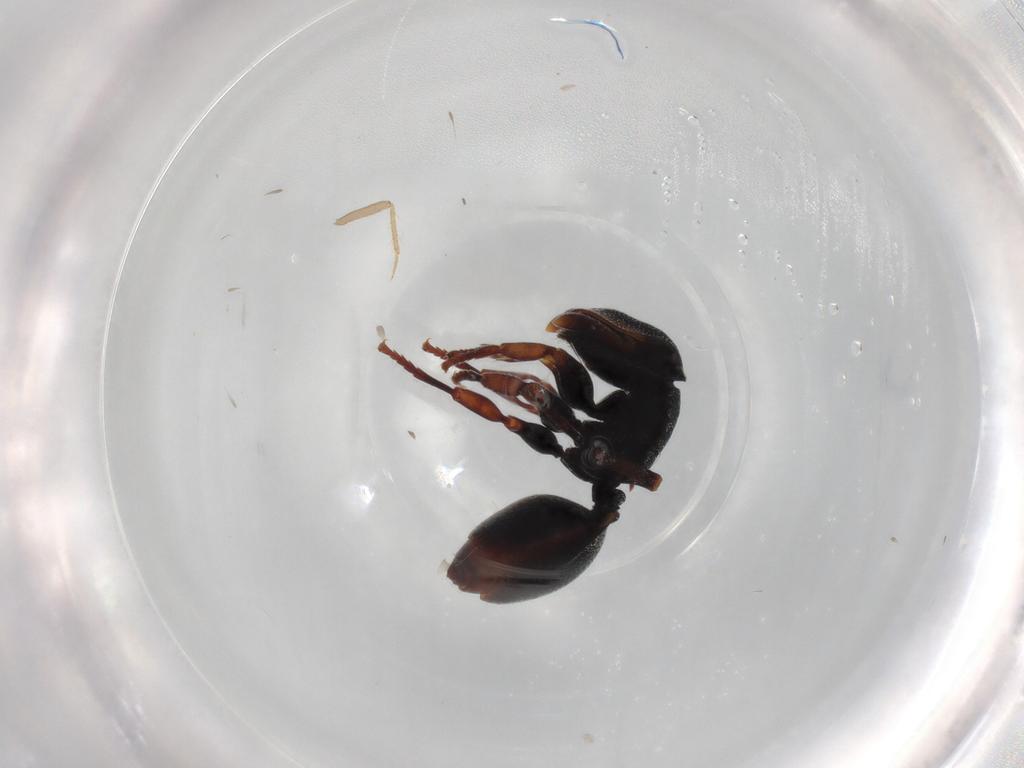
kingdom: Animalia
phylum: Arthropoda
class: Insecta
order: Hymenoptera
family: Formicidae
